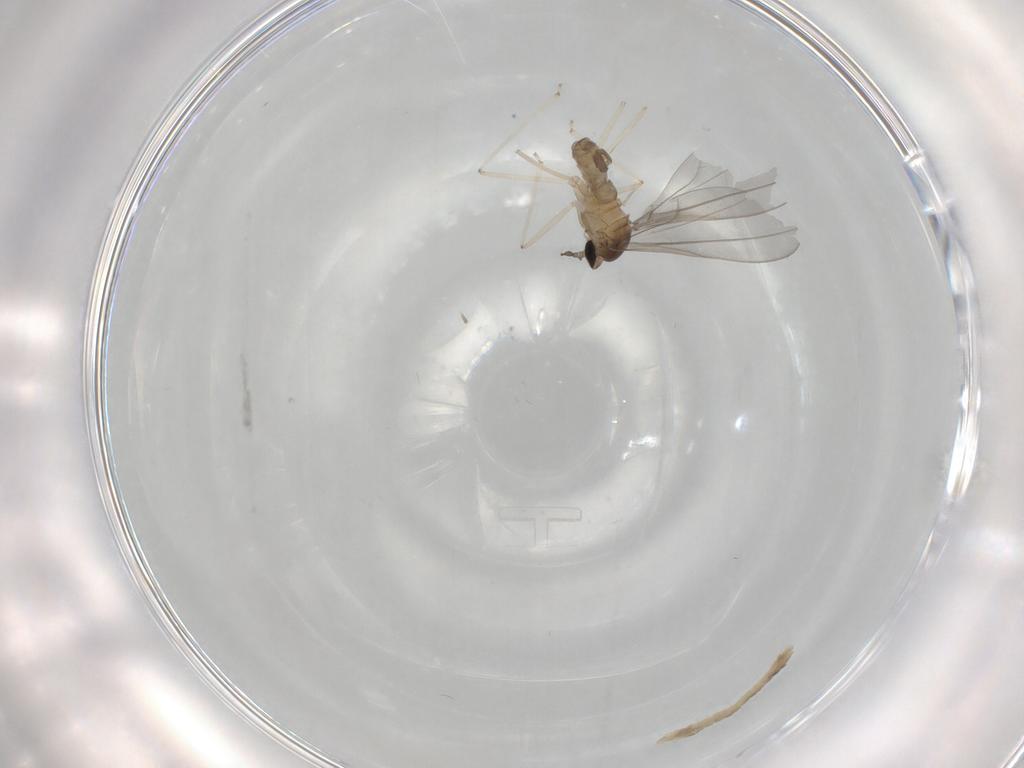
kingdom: Animalia
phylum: Arthropoda
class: Insecta
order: Diptera
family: Cecidomyiidae
